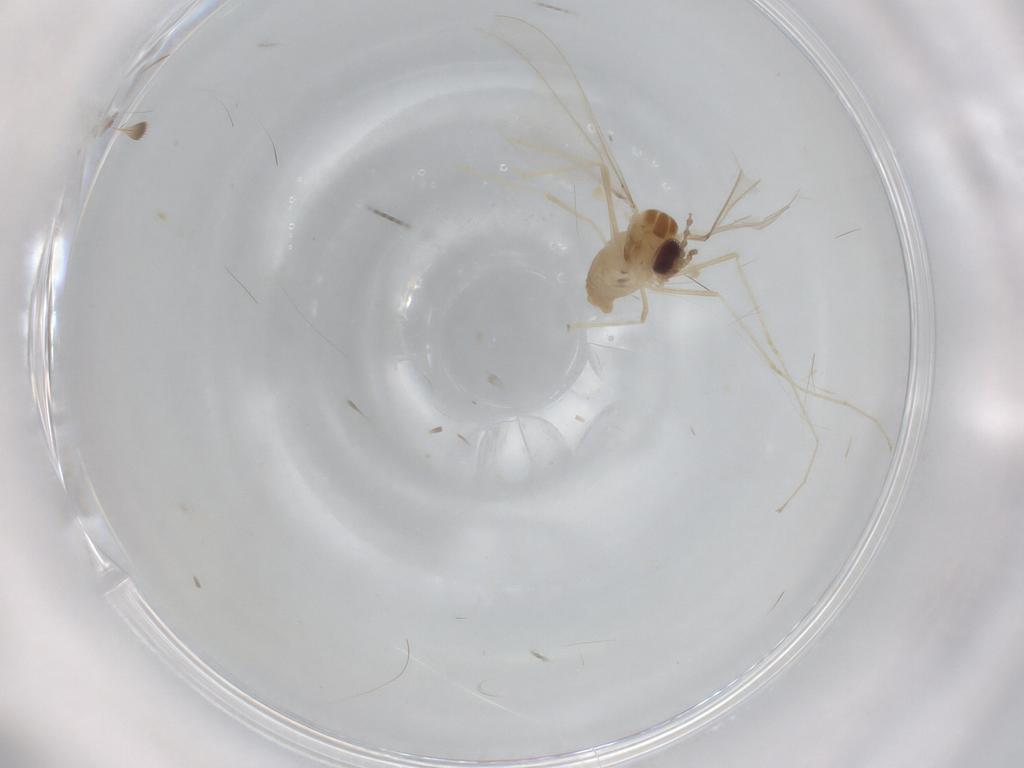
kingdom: Animalia
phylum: Arthropoda
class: Insecta
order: Diptera
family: Sciaridae
